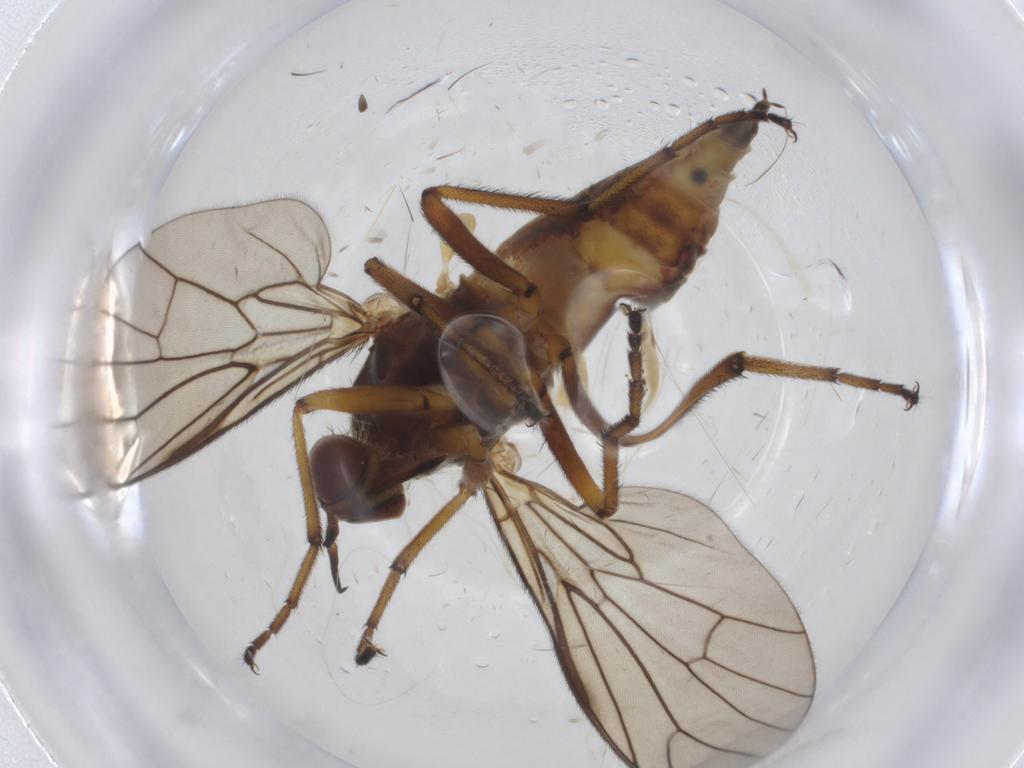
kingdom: Animalia
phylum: Arthropoda
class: Insecta
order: Diptera
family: Empididae
